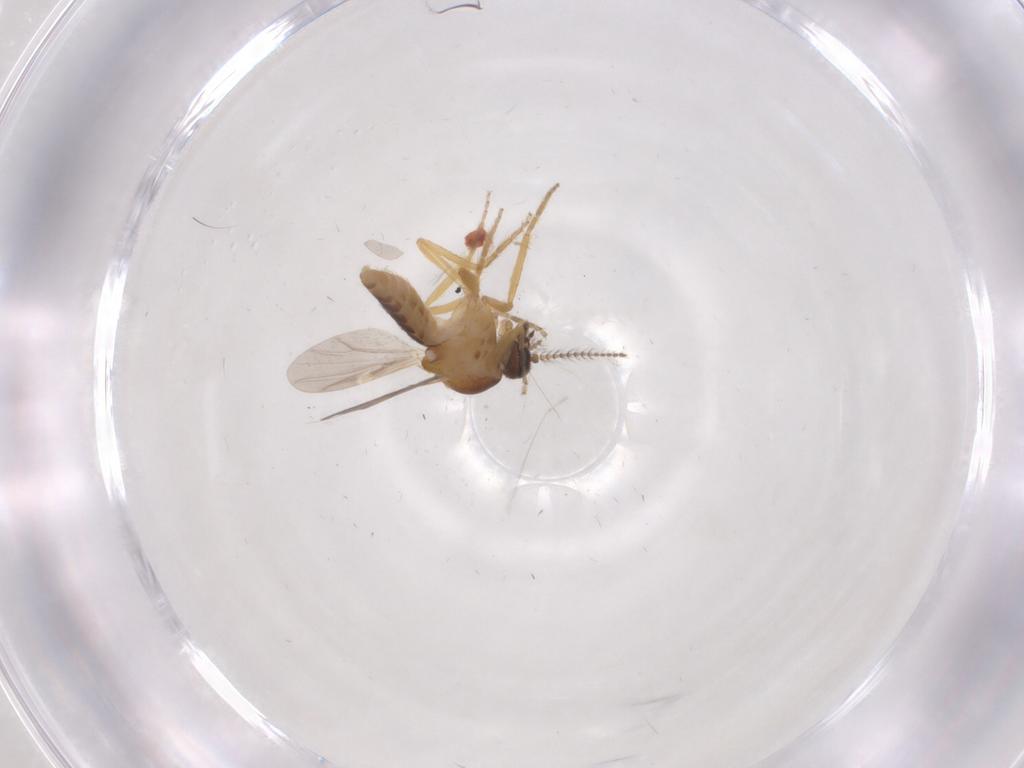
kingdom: Animalia
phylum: Arthropoda
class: Insecta
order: Diptera
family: Ceratopogonidae
